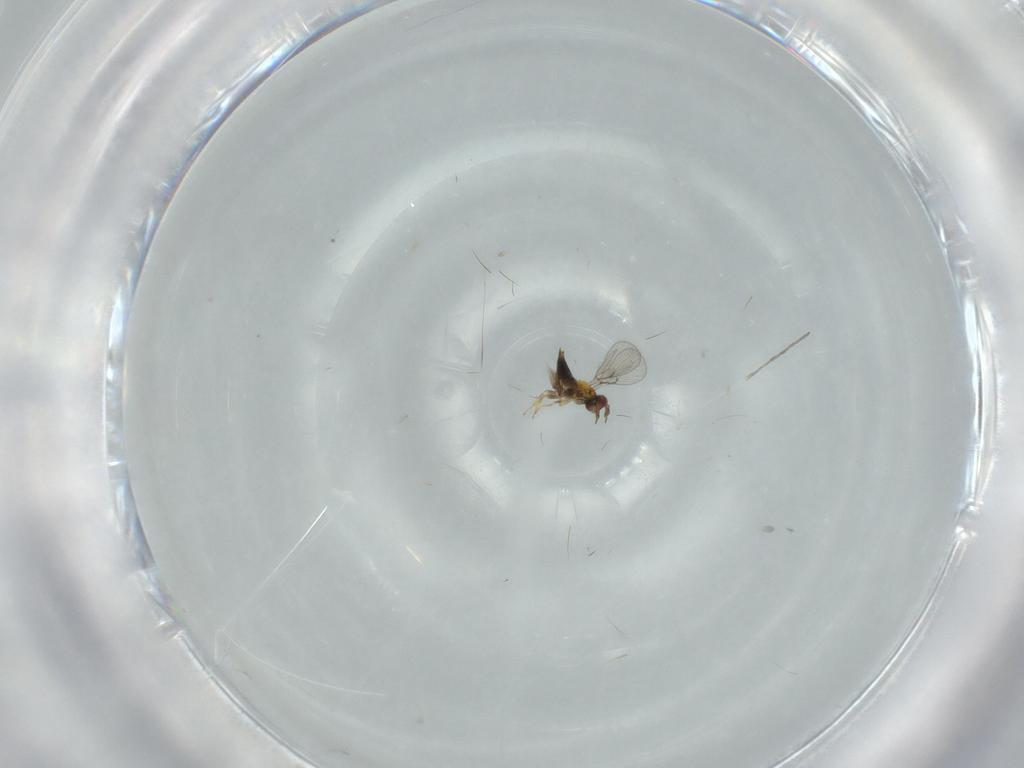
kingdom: Animalia
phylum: Arthropoda
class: Insecta
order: Hymenoptera
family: Trichogrammatidae
